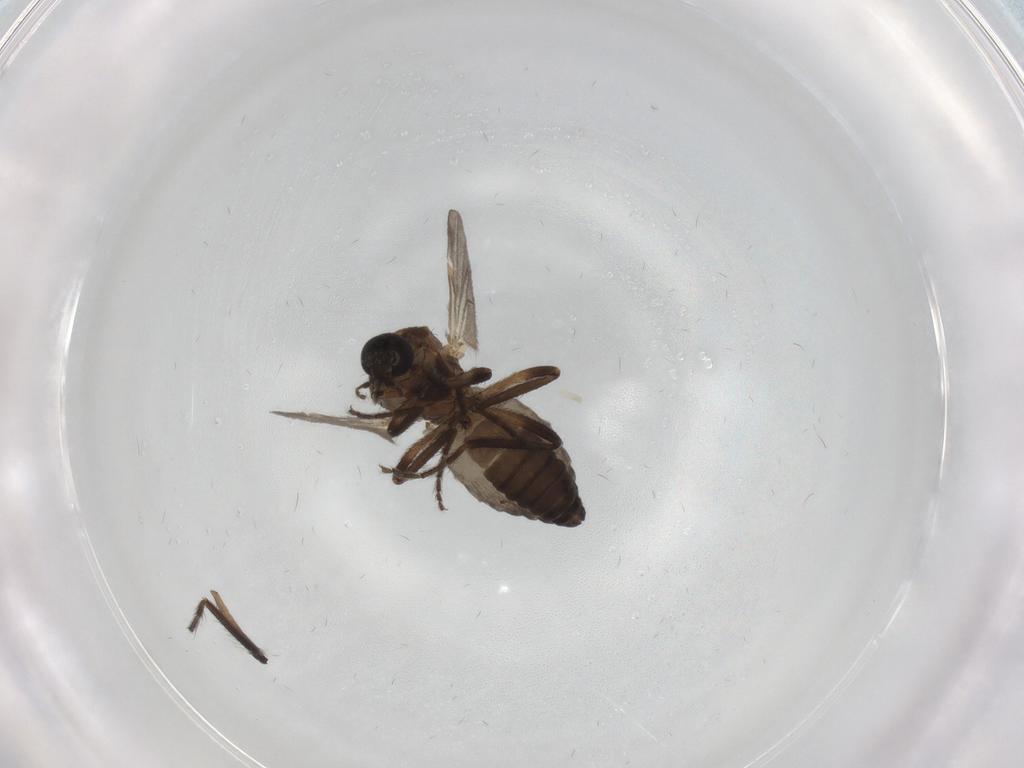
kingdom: Animalia
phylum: Arthropoda
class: Insecta
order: Diptera
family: Ceratopogonidae
